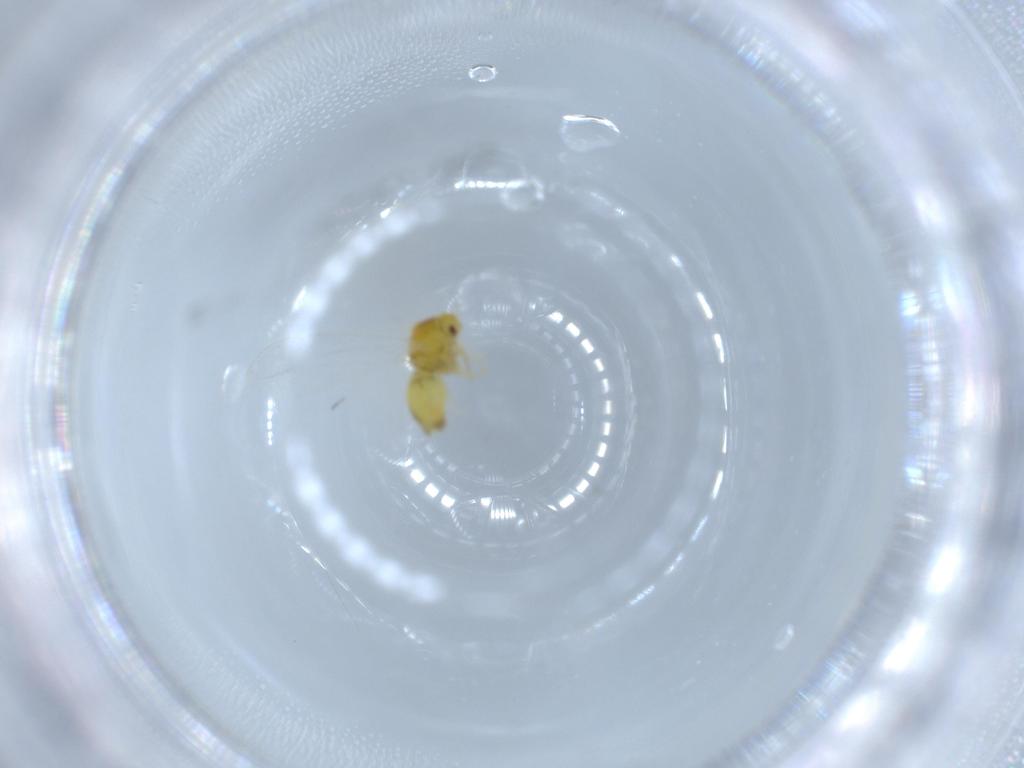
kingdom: Animalia
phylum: Arthropoda
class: Insecta
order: Hemiptera
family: Aleyrodidae
